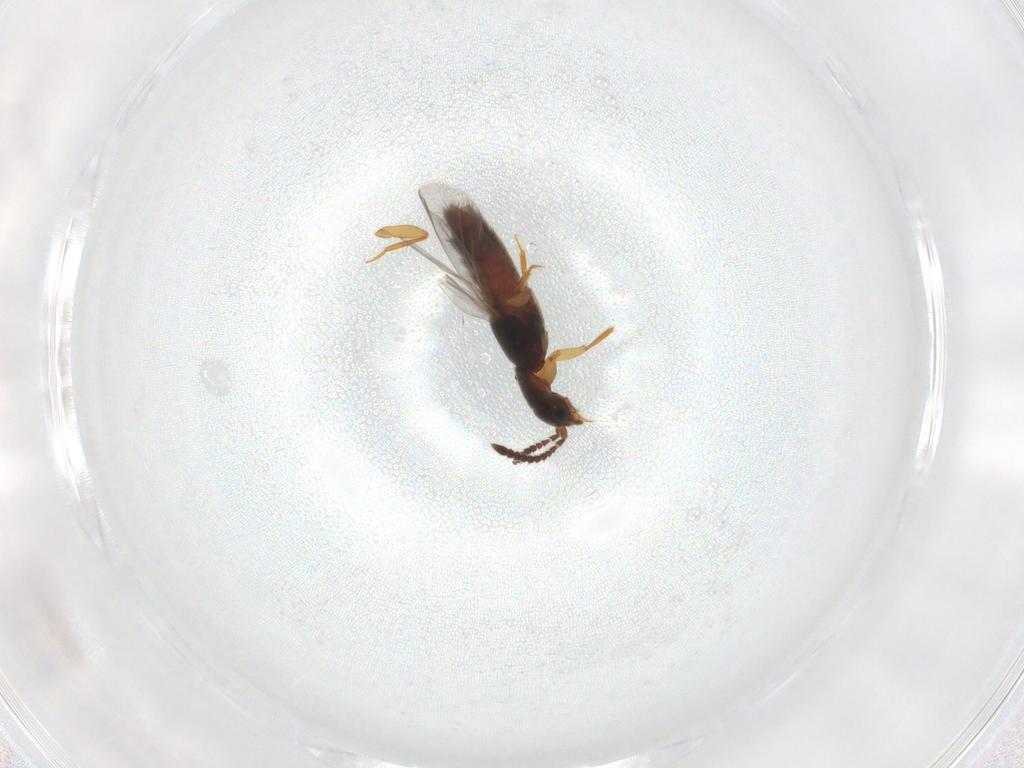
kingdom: Animalia
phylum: Arthropoda
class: Insecta
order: Coleoptera
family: Staphylinidae
